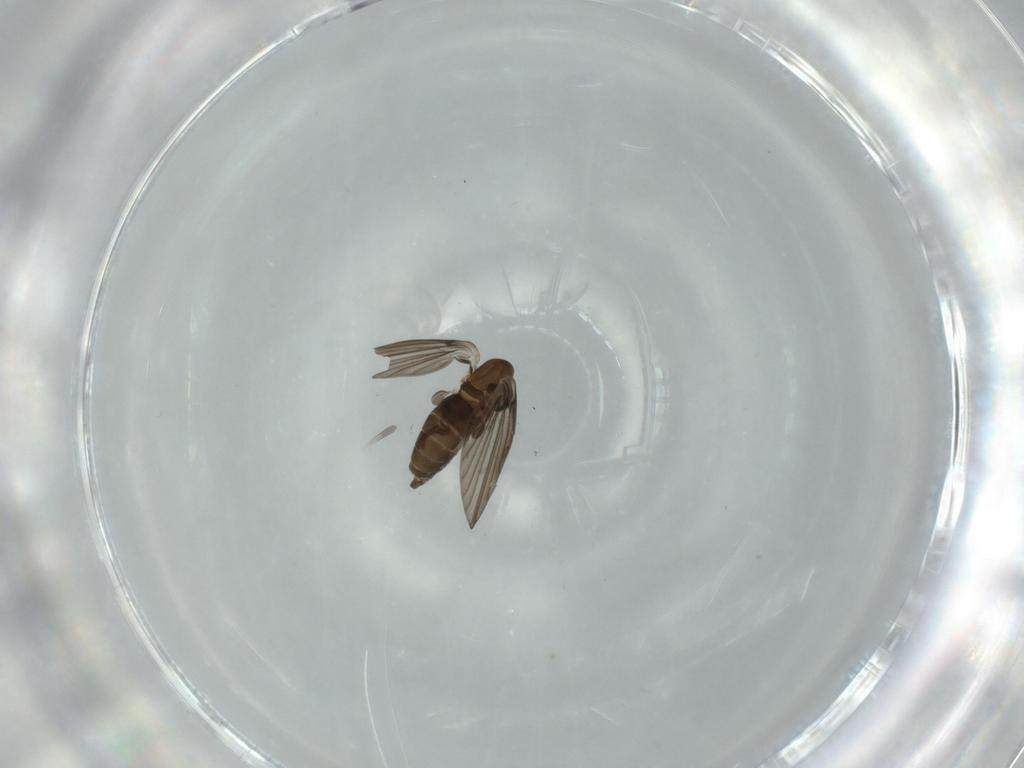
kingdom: Animalia
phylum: Arthropoda
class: Insecta
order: Diptera
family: Psychodidae
